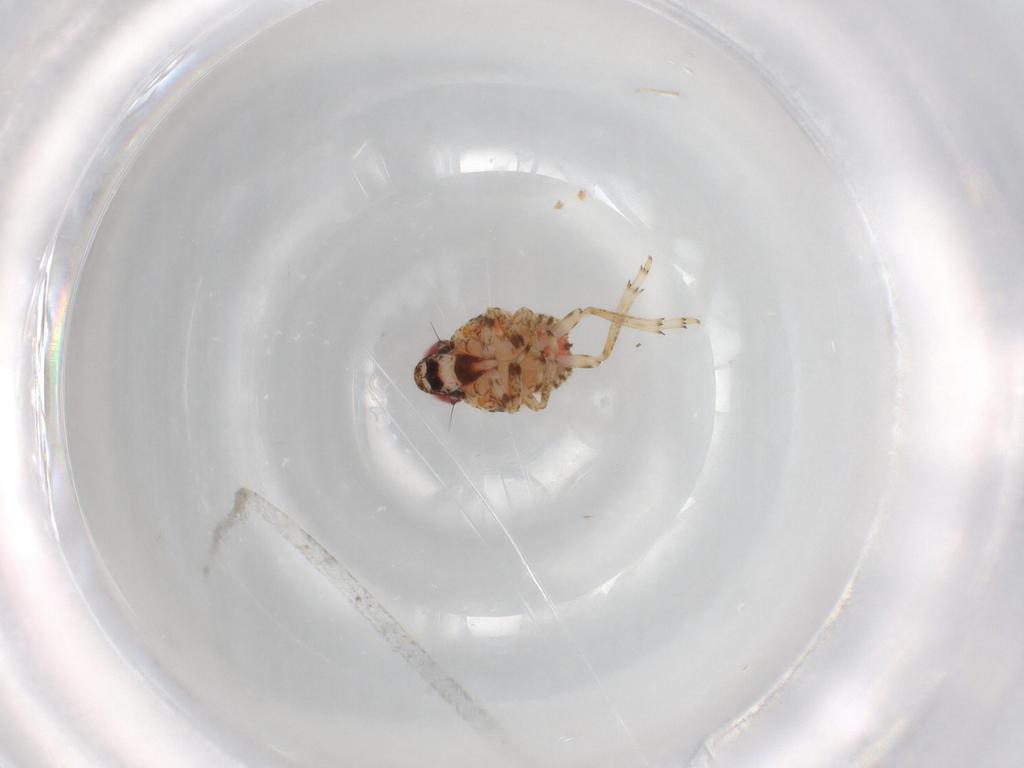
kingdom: Animalia
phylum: Arthropoda
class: Insecta
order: Hemiptera
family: Issidae
